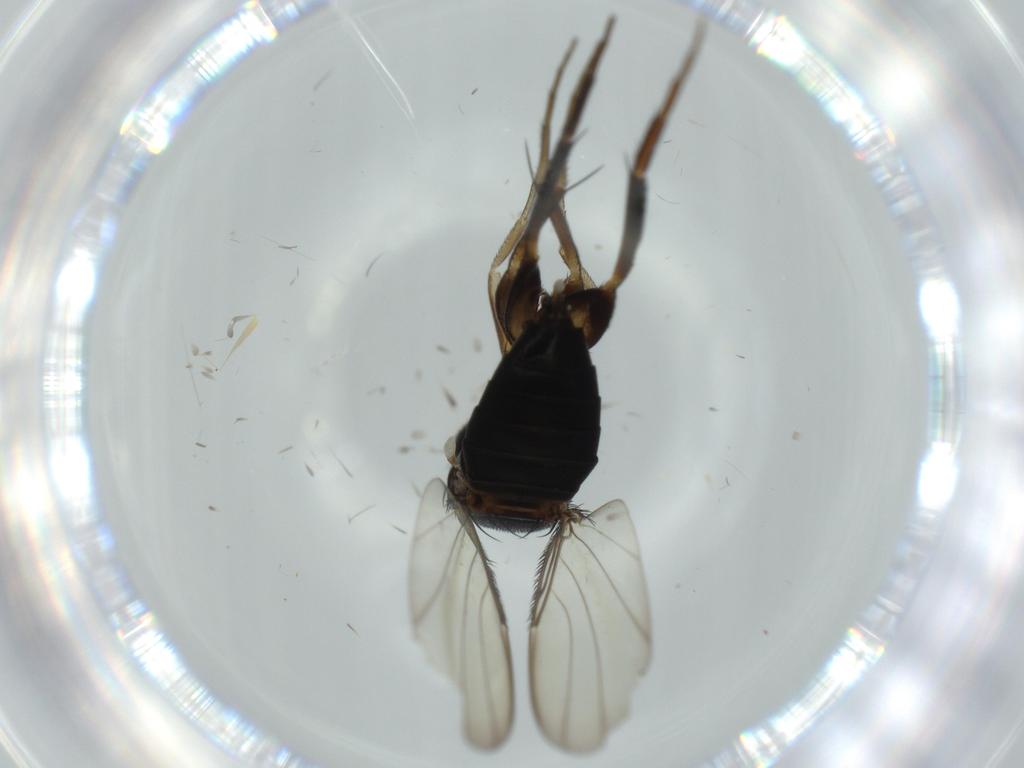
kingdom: Animalia
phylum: Arthropoda
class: Insecta
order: Diptera
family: Phoridae
